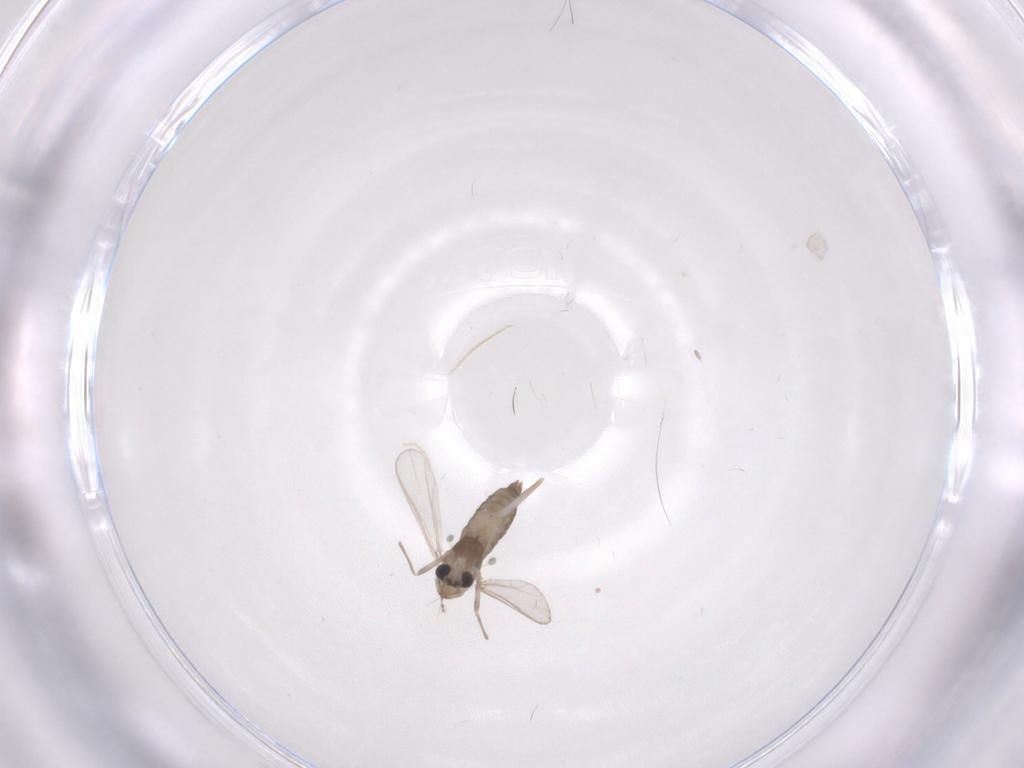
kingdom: Animalia
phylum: Arthropoda
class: Insecta
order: Diptera
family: Chironomidae
